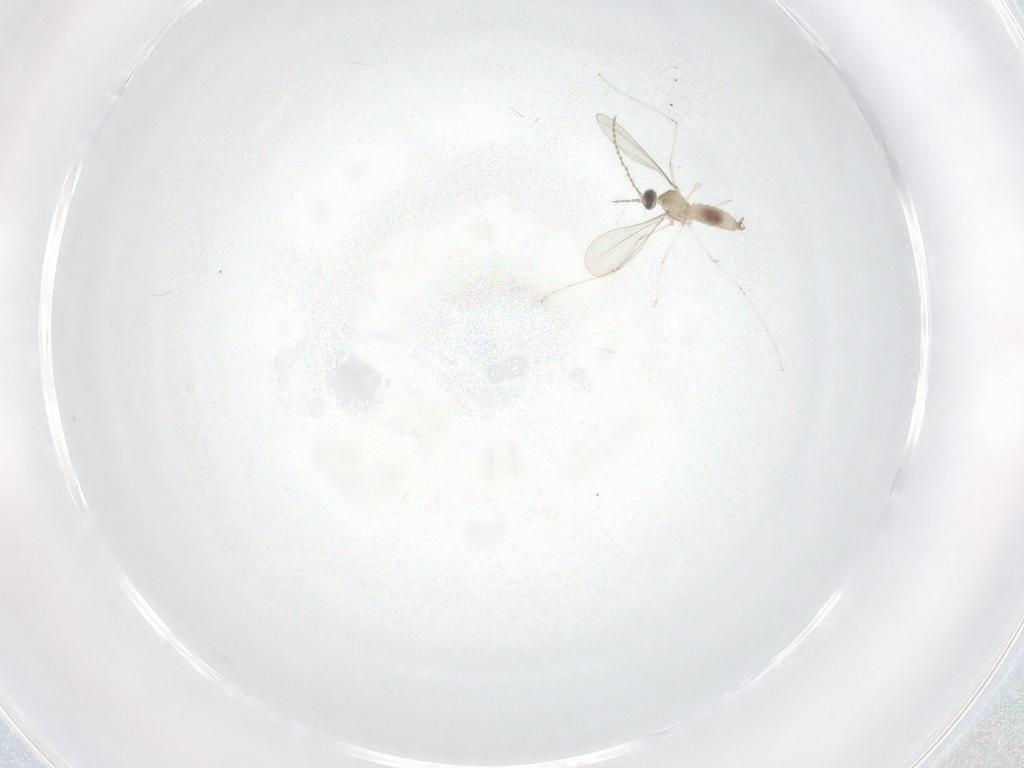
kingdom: Animalia
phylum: Arthropoda
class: Insecta
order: Diptera
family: Cecidomyiidae
